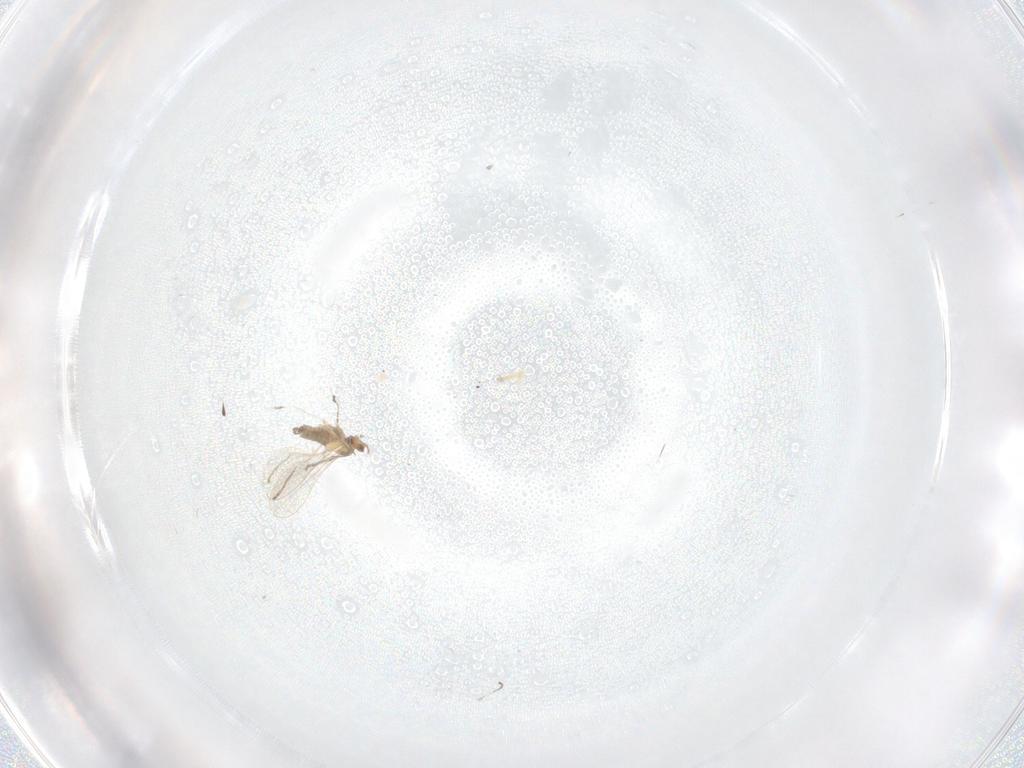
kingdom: Animalia
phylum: Arthropoda
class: Insecta
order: Diptera
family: Cecidomyiidae
